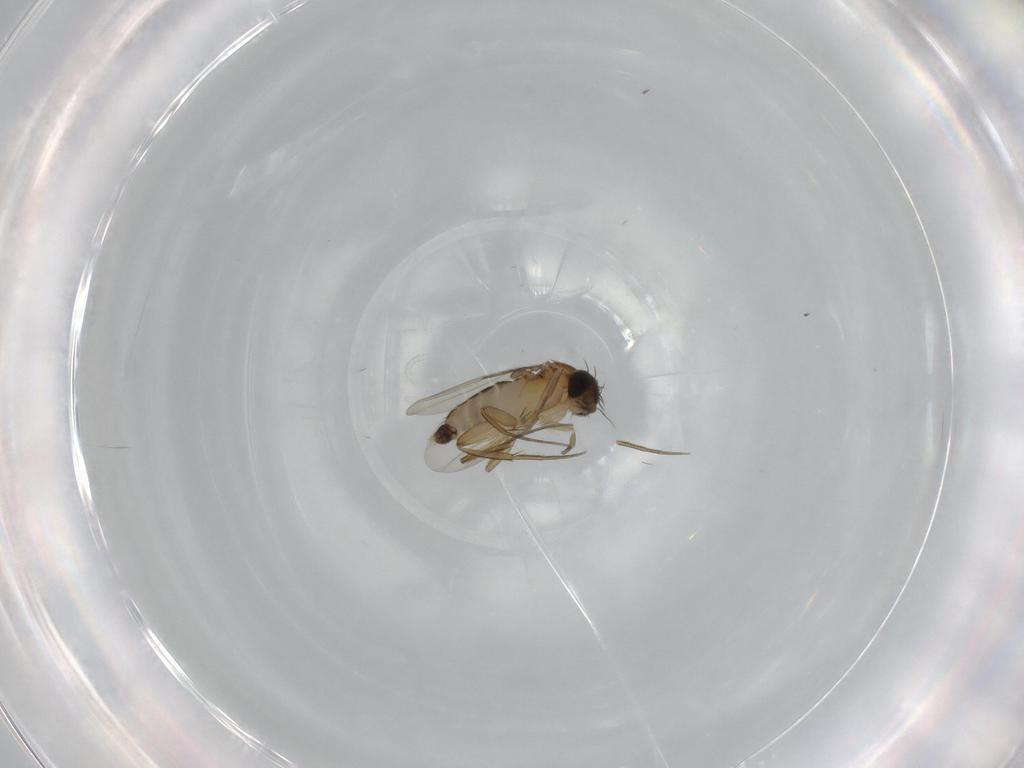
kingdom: Animalia
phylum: Arthropoda
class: Insecta
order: Diptera
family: Phoridae
